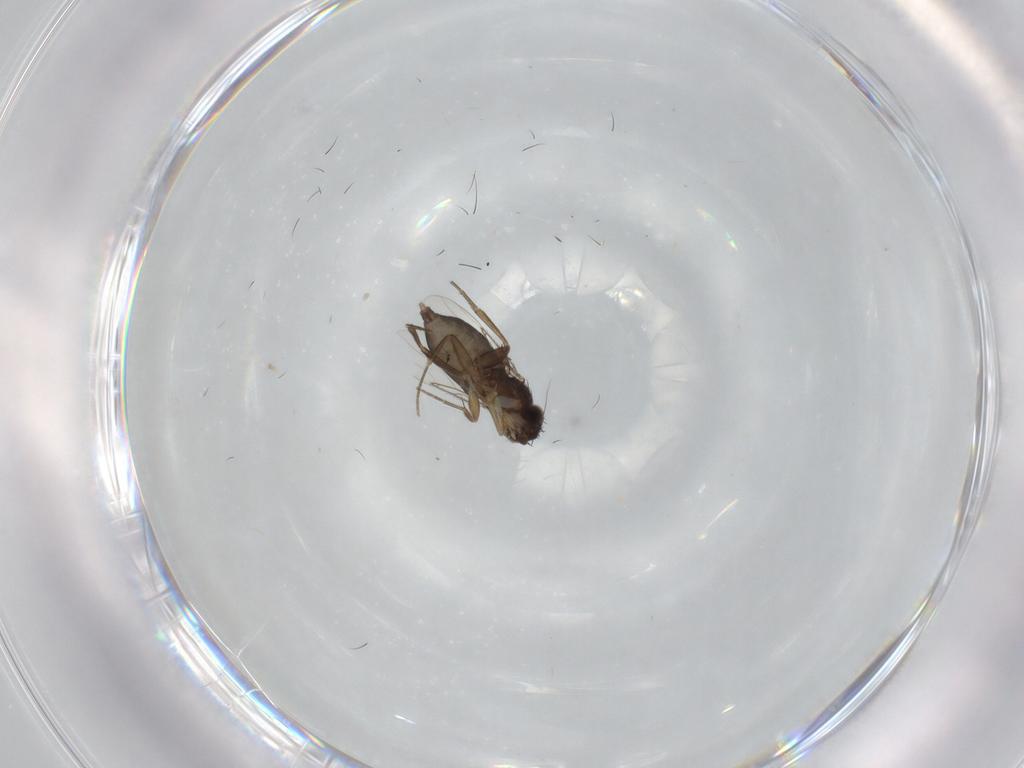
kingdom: Animalia
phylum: Arthropoda
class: Insecta
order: Diptera
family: Phoridae
